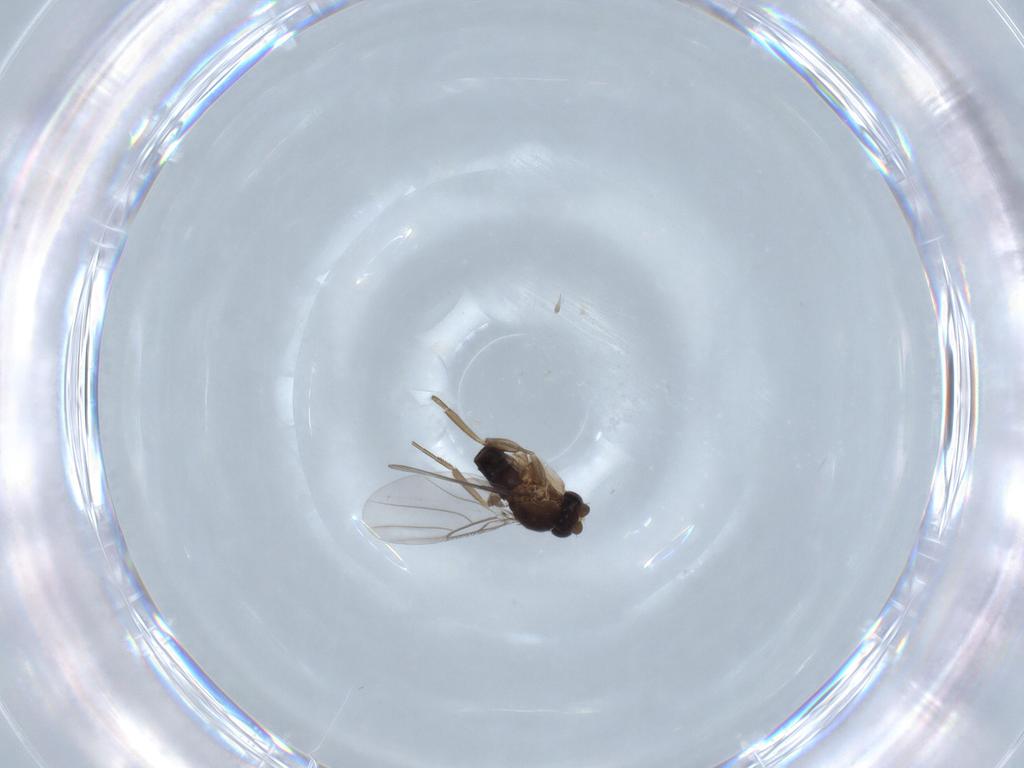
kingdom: Animalia
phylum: Arthropoda
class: Insecta
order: Diptera
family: Phoridae
